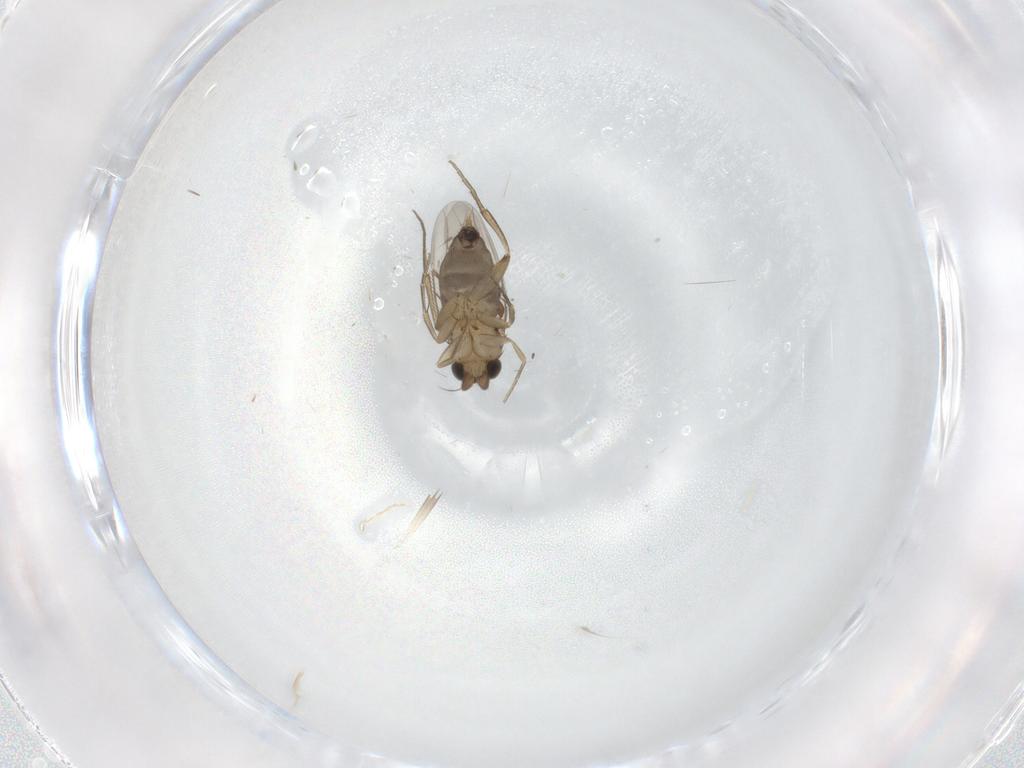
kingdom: Animalia
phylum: Arthropoda
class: Insecta
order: Diptera
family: Phoridae
